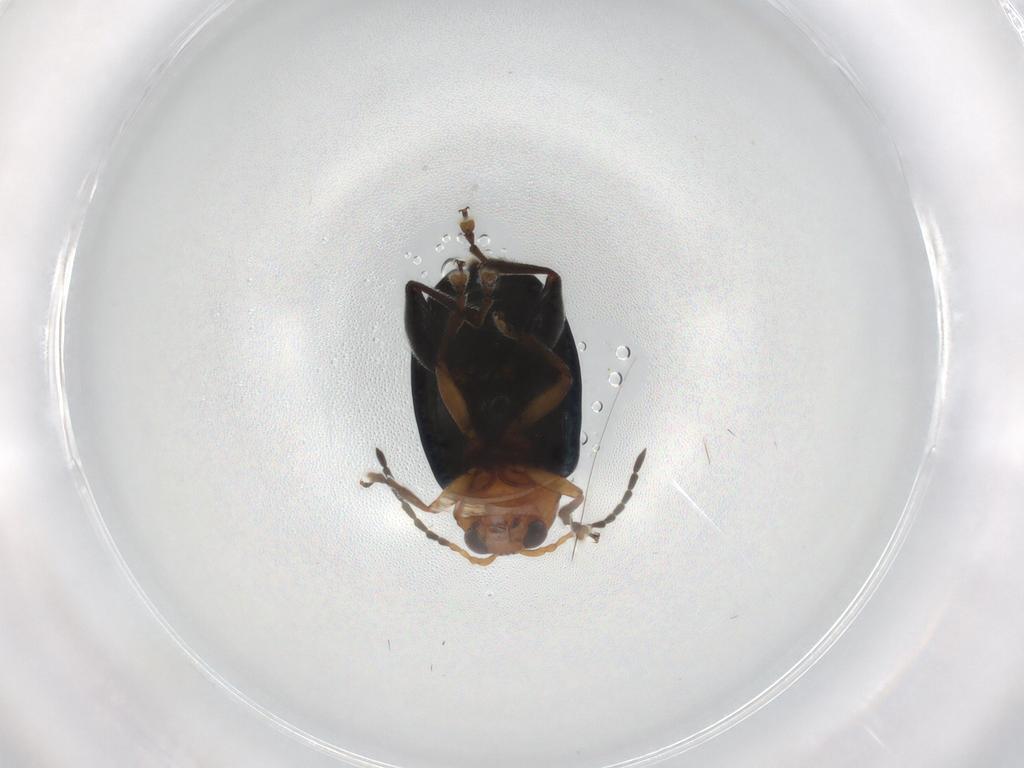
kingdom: Animalia
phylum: Arthropoda
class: Insecta
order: Coleoptera
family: Chrysomelidae
